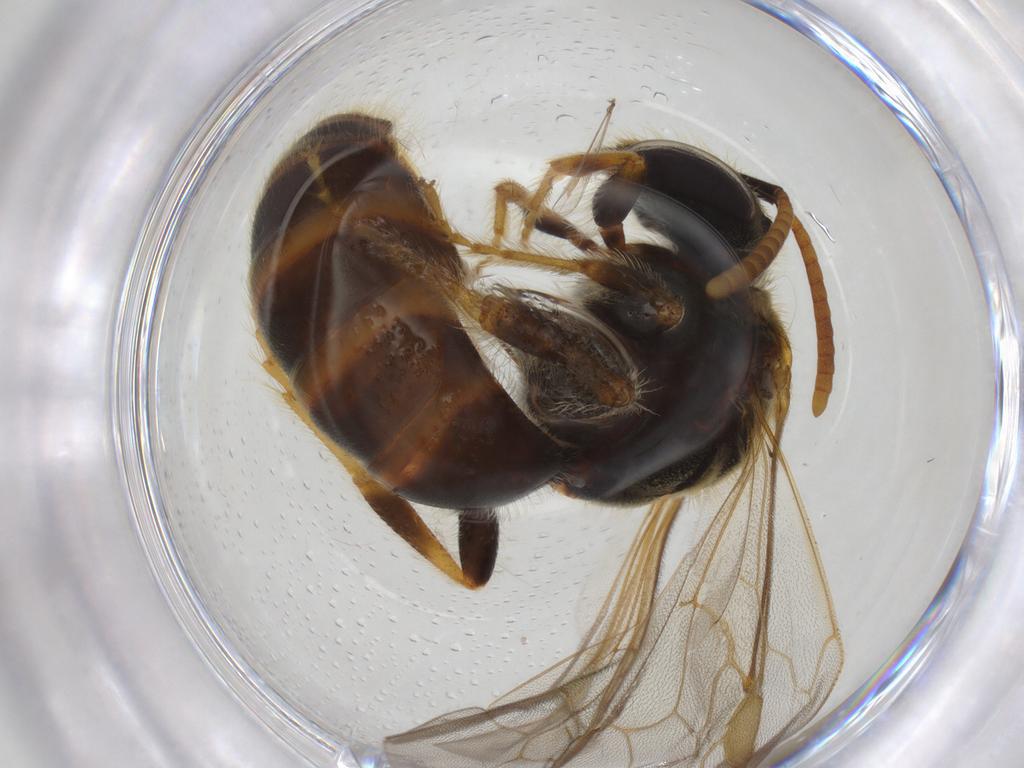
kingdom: Animalia
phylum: Arthropoda
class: Insecta
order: Hymenoptera
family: Halictidae
